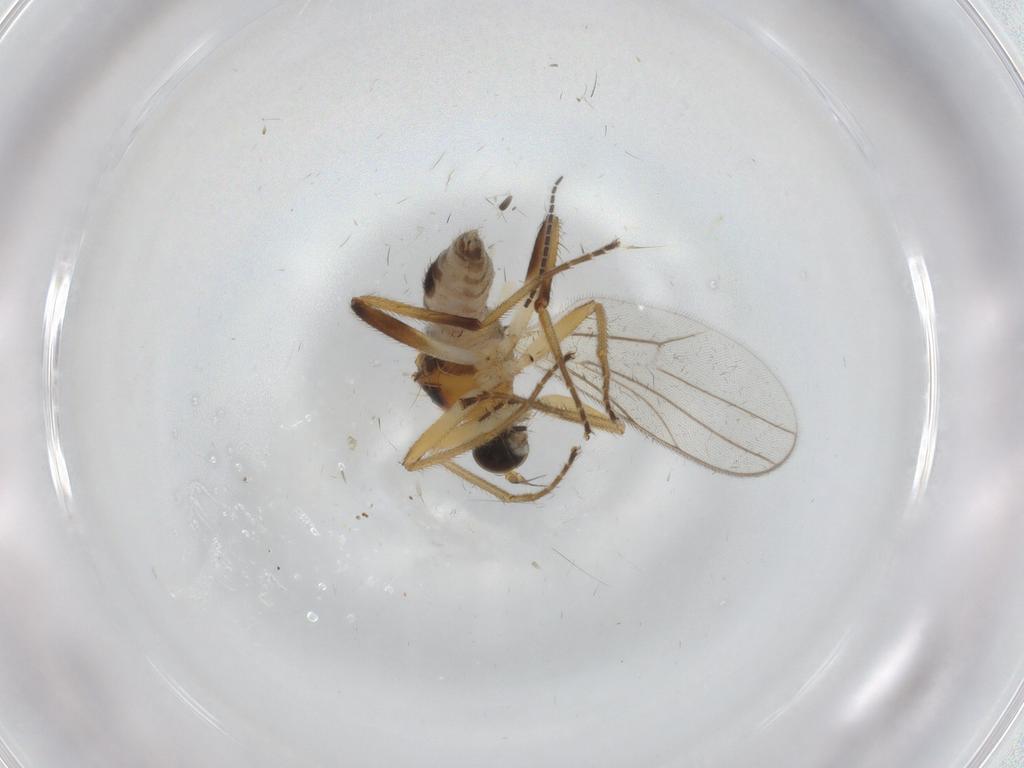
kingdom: Animalia
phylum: Arthropoda
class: Insecta
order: Diptera
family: Hybotidae
